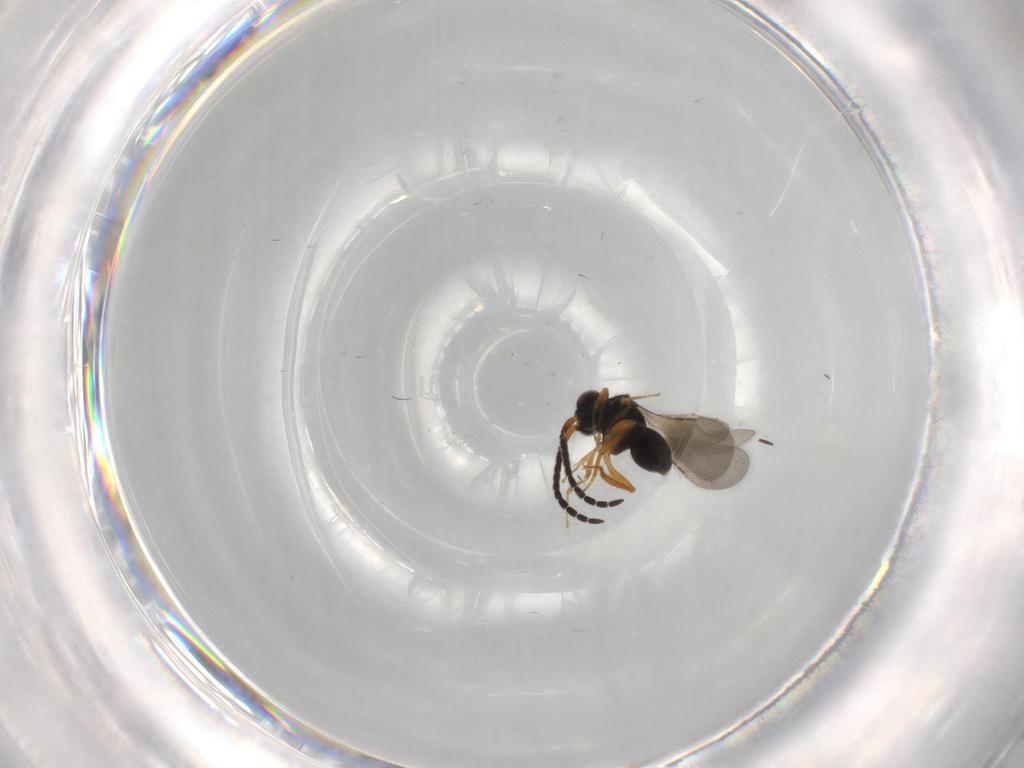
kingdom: Animalia
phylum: Arthropoda
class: Insecta
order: Hymenoptera
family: Ceraphronidae
